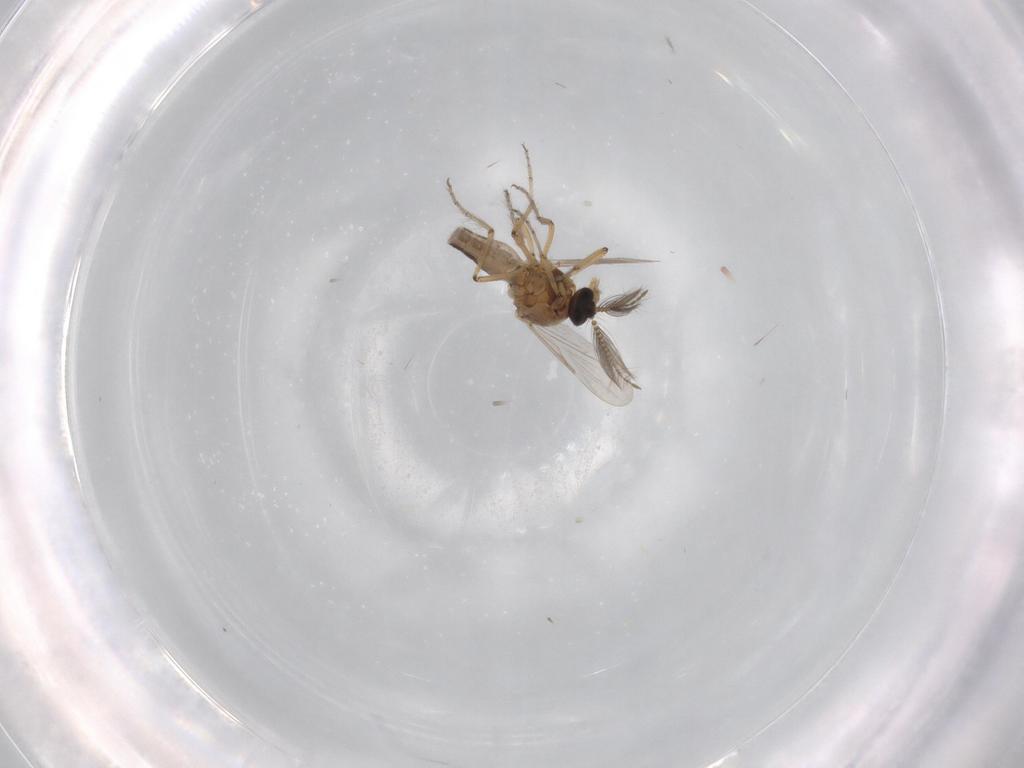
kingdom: Animalia
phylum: Arthropoda
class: Insecta
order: Diptera
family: Ceratopogonidae
